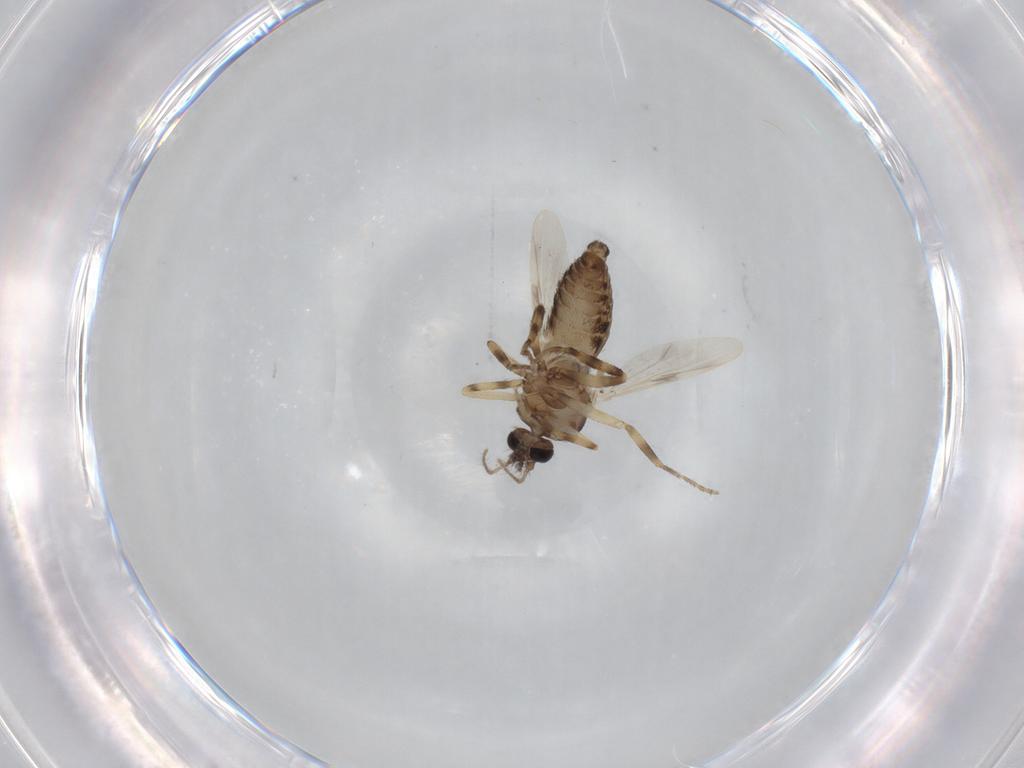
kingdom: Animalia
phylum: Arthropoda
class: Insecta
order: Diptera
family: Ceratopogonidae
